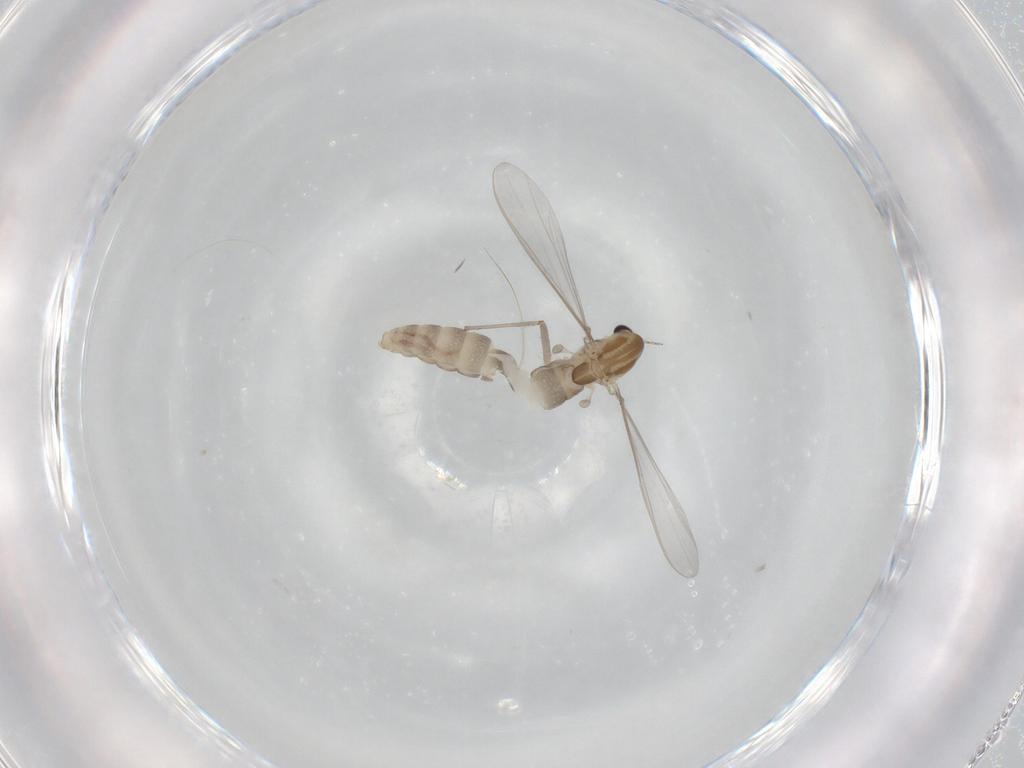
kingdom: Animalia
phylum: Arthropoda
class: Insecta
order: Diptera
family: Chironomidae
